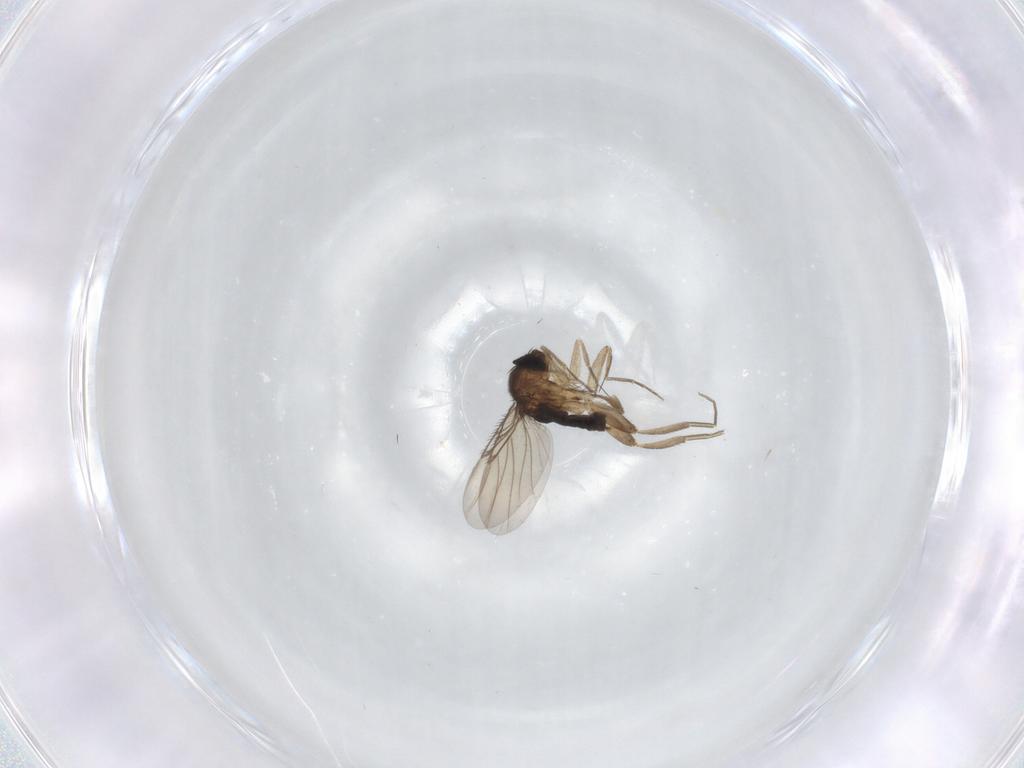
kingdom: Animalia
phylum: Arthropoda
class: Insecta
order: Diptera
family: Phoridae
